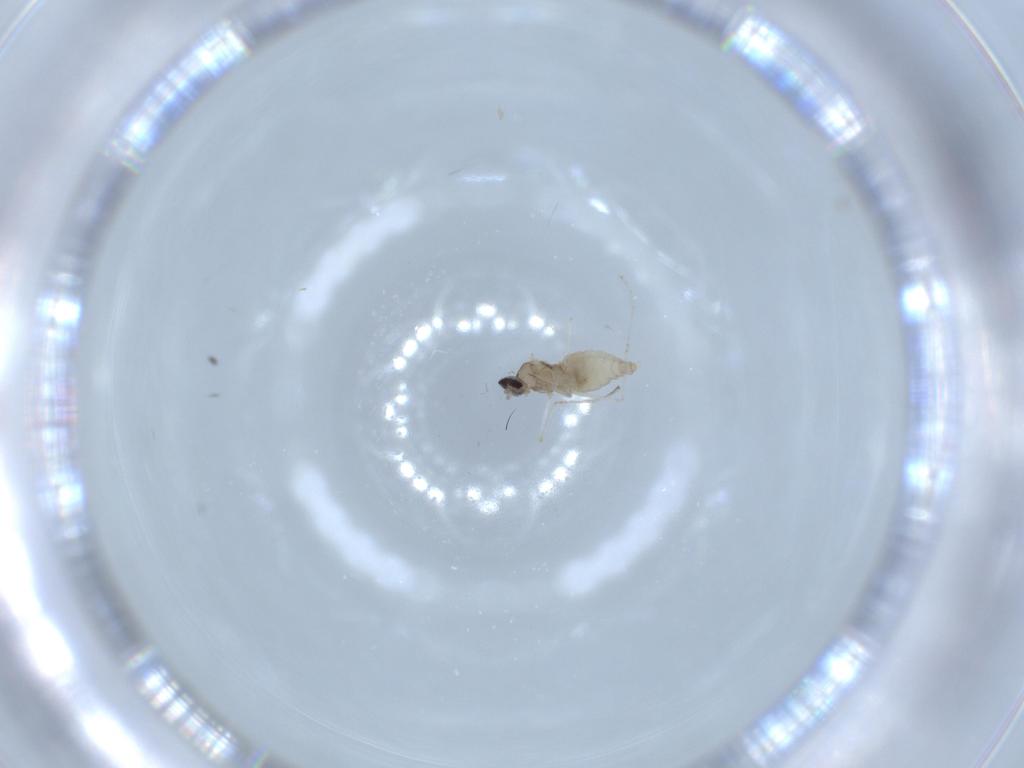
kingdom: Animalia
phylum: Arthropoda
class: Insecta
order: Diptera
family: Cecidomyiidae
